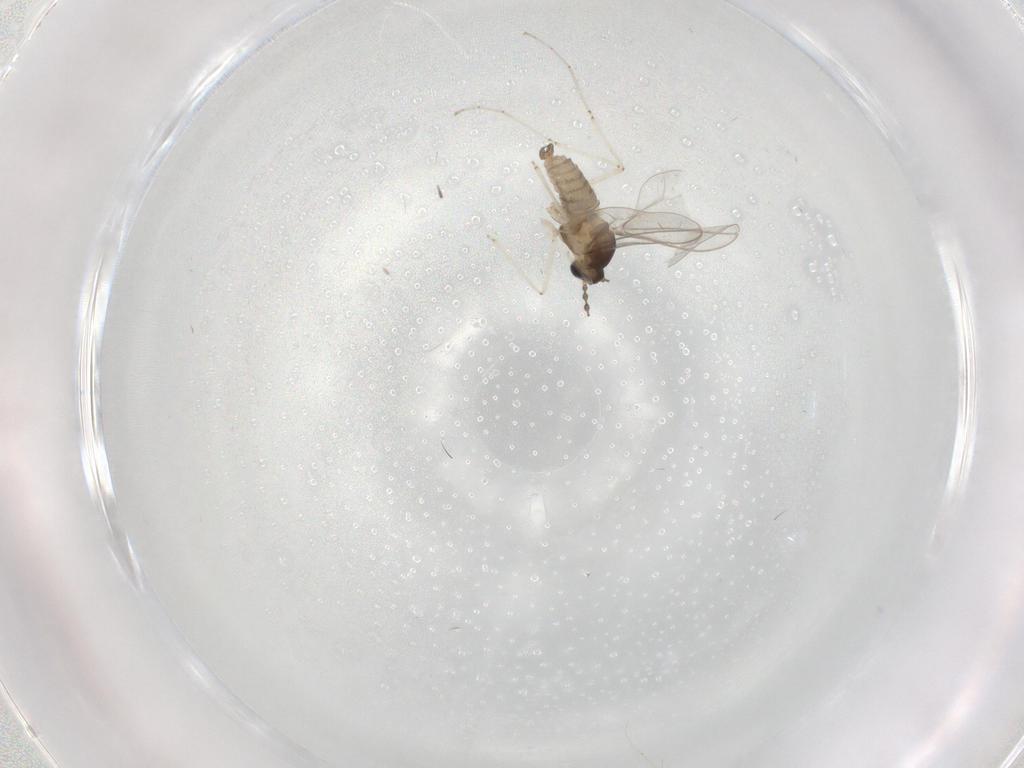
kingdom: Animalia
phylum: Arthropoda
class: Insecta
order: Diptera
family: Cecidomyiidae
